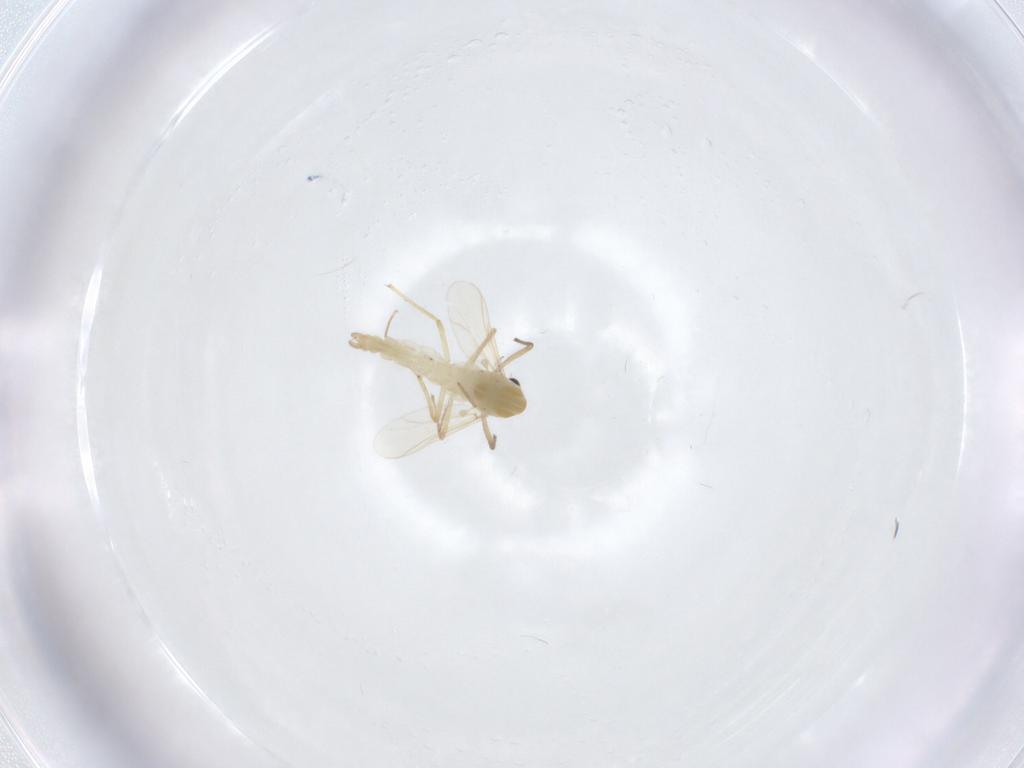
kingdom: Animalia
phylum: Arthropoda
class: Insecta
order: Diptera
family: Chironomidae
